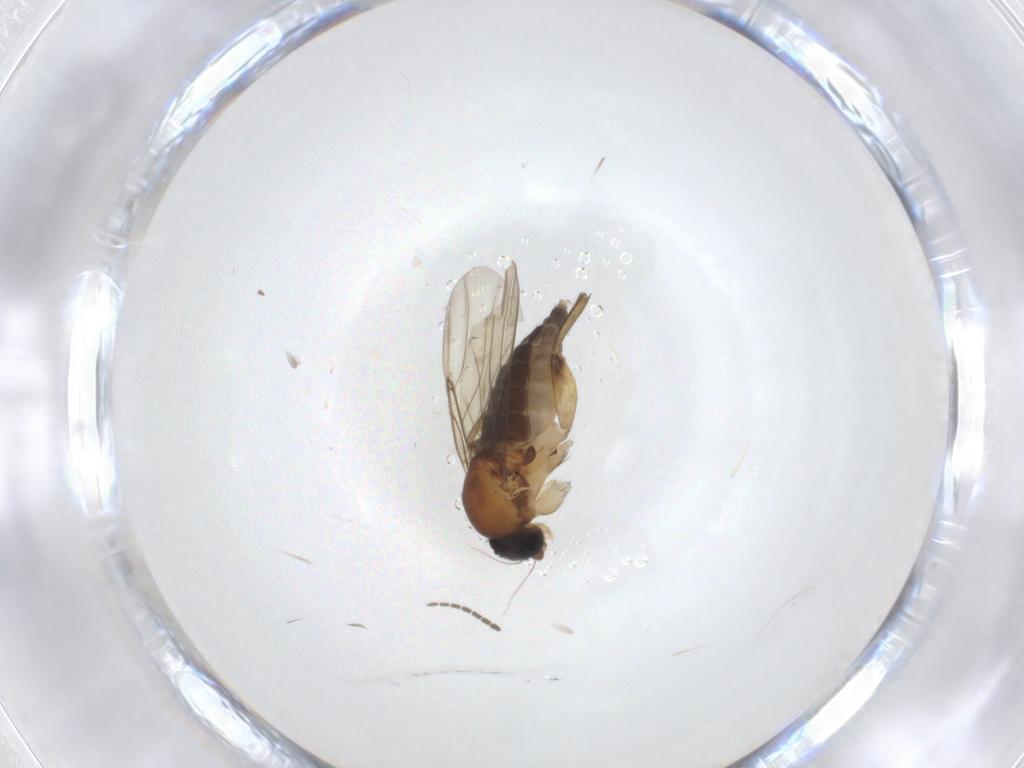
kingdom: Animalia
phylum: Arthropoda
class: Insecta
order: Diptera
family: Phoridae
